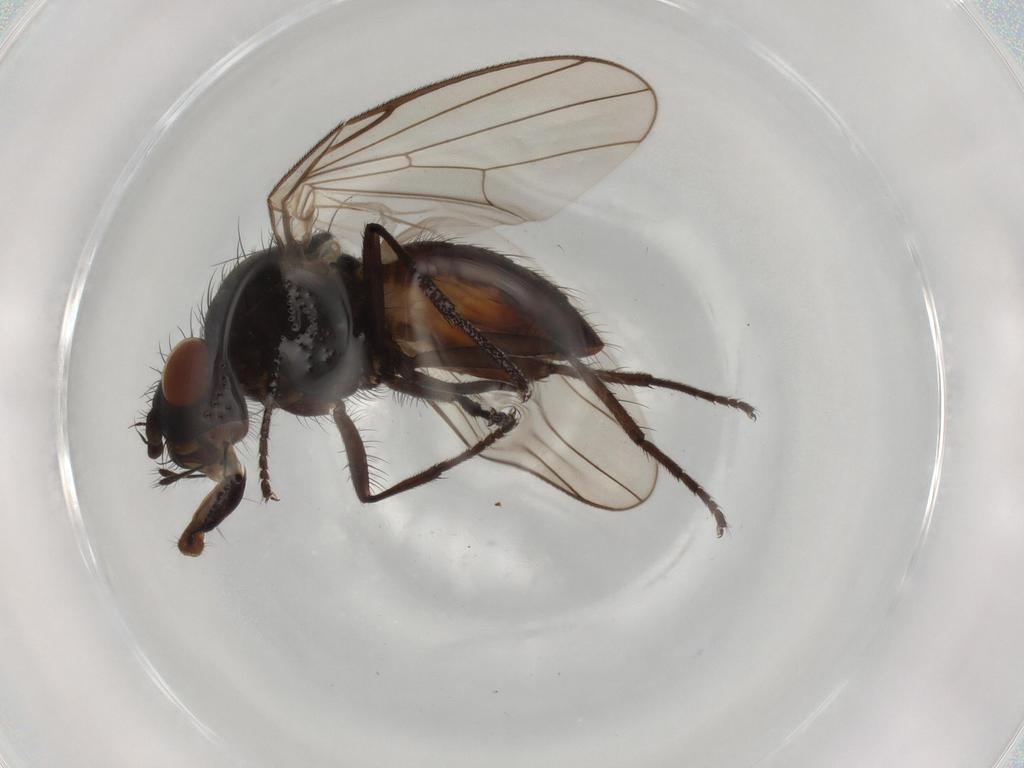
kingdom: Animalia
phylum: Arthropoda
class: Insecta
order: Diptera
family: Anthomyiidae
